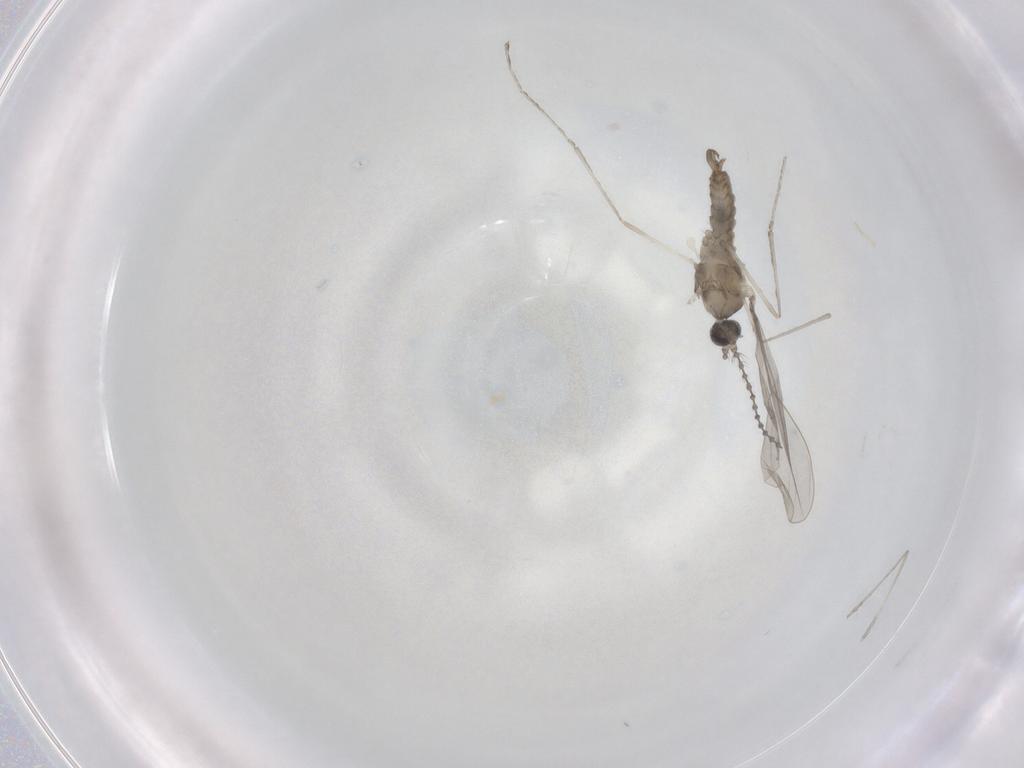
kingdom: Animalia
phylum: Arthropoda
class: Insecta
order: Diptera
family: Cecidomyiidae
